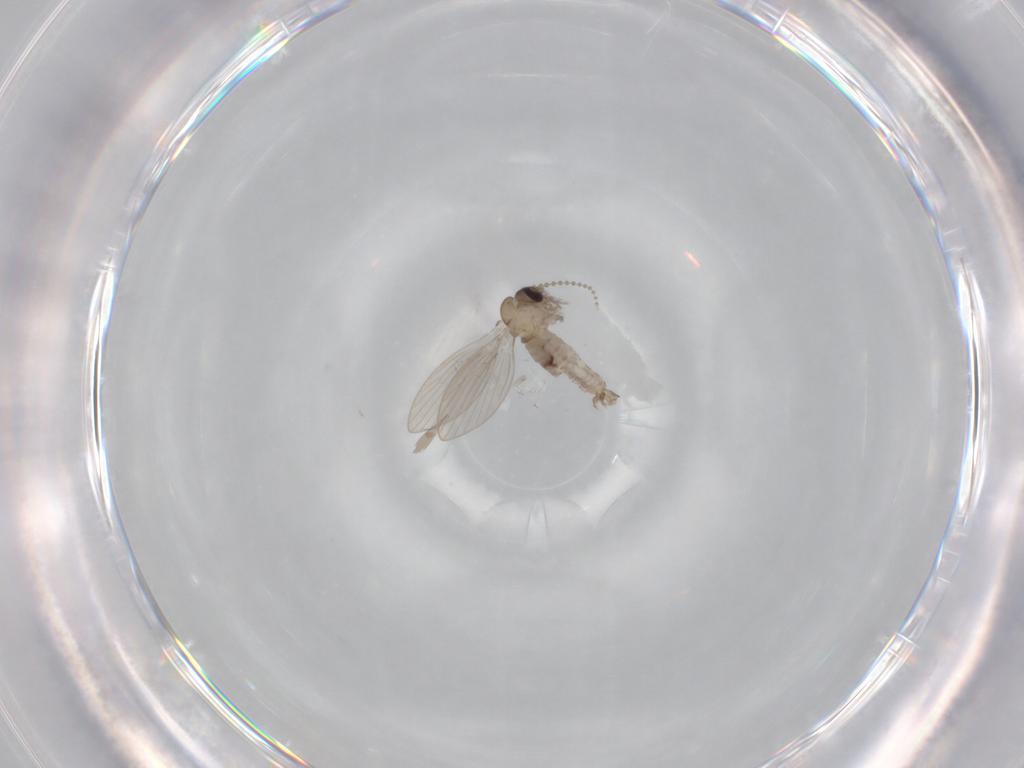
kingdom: Animalia
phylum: Arthropoda
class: Insecta
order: Diptera
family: Psychodidae
